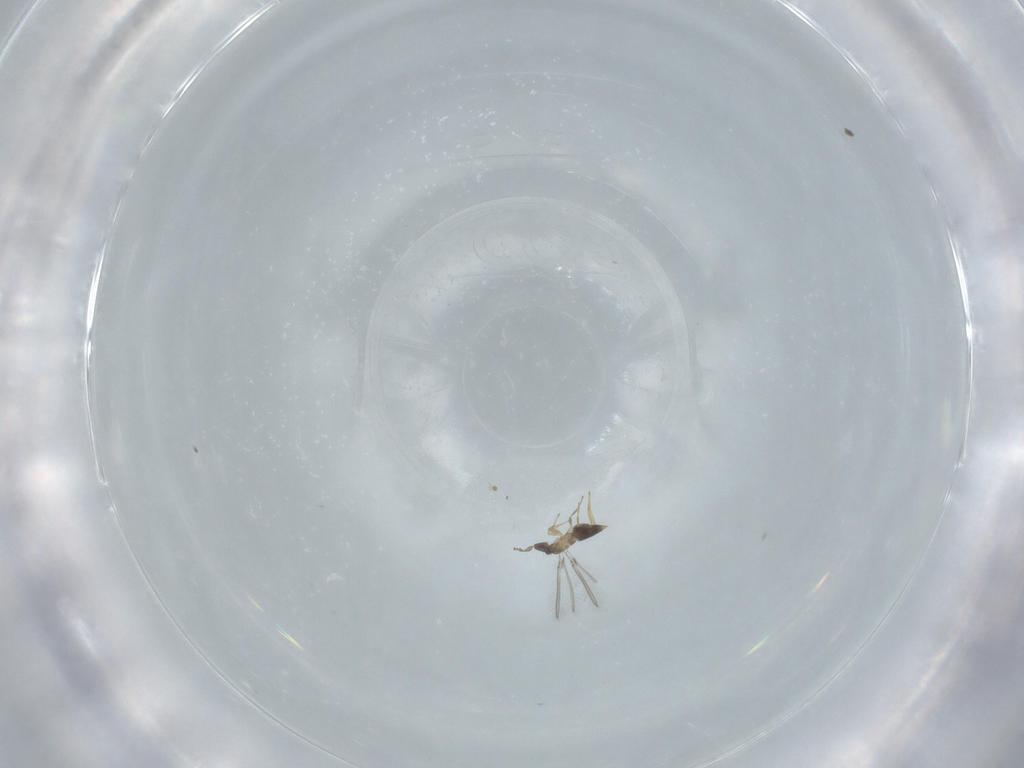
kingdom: Animalia
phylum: Arthropoda
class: Insecta
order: Hymenoptera
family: Mymaridae
